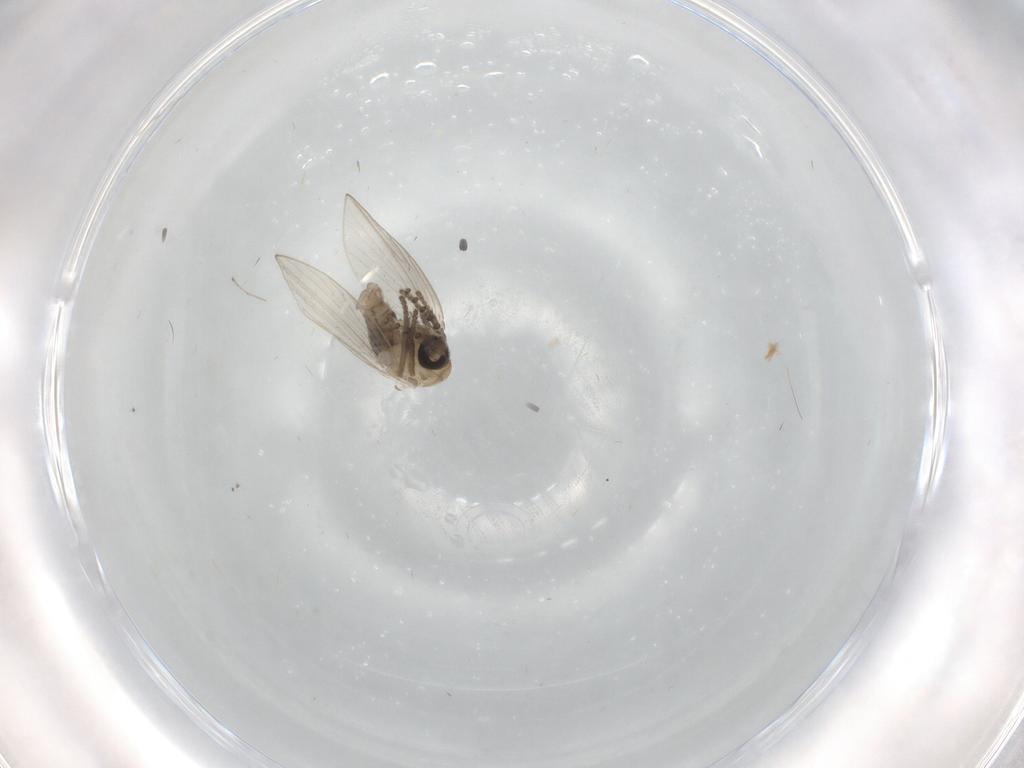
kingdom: Animalia
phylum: Arthropoda
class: Insecta
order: Diptera
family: Psychodidae
